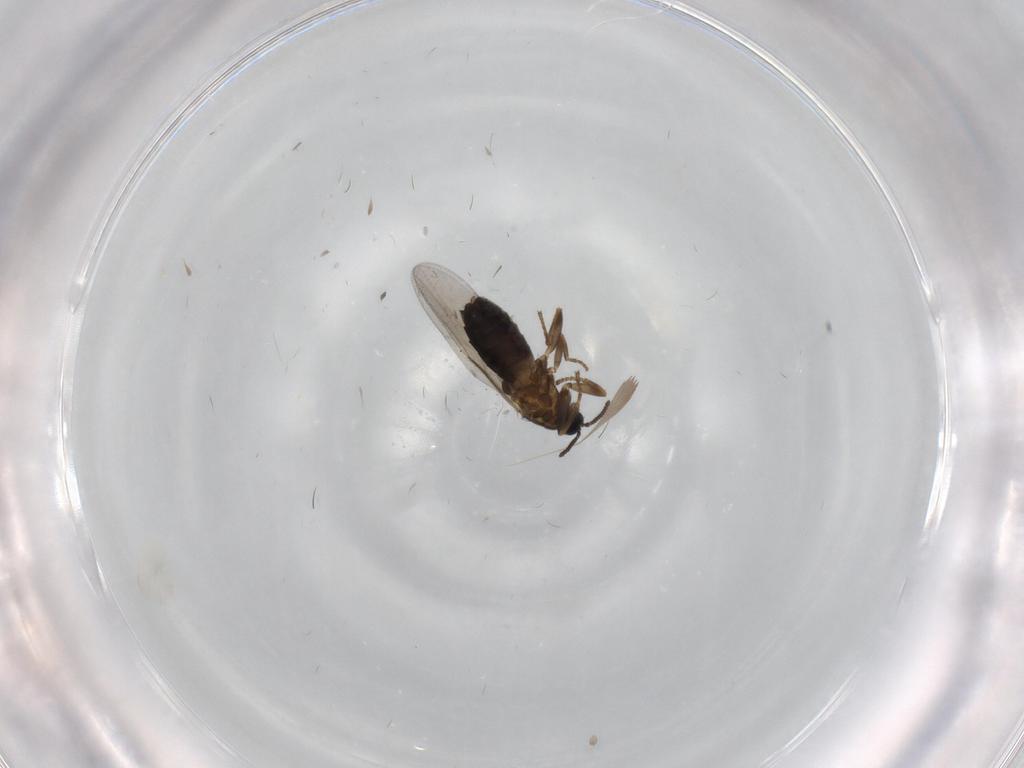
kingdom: Animalia
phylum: Arthropoda
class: Insecta
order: Diptera
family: Scatopsidae
